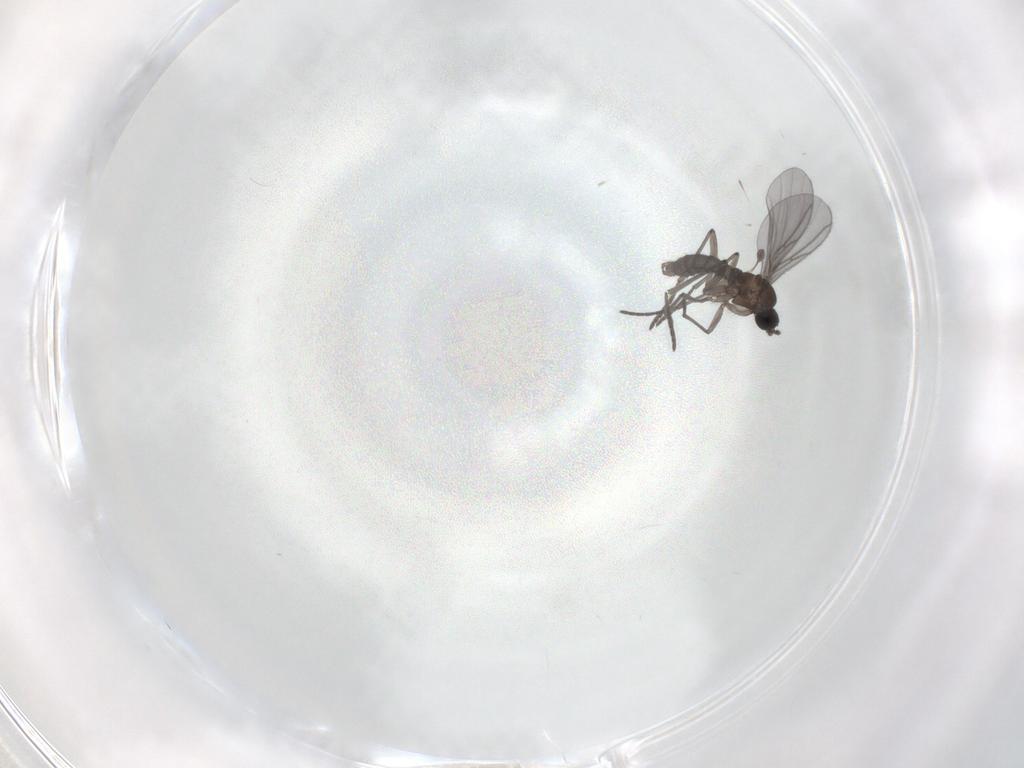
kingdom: Animalia
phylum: Arthropoda
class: Insecta
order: Diptera
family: Chironomidae
